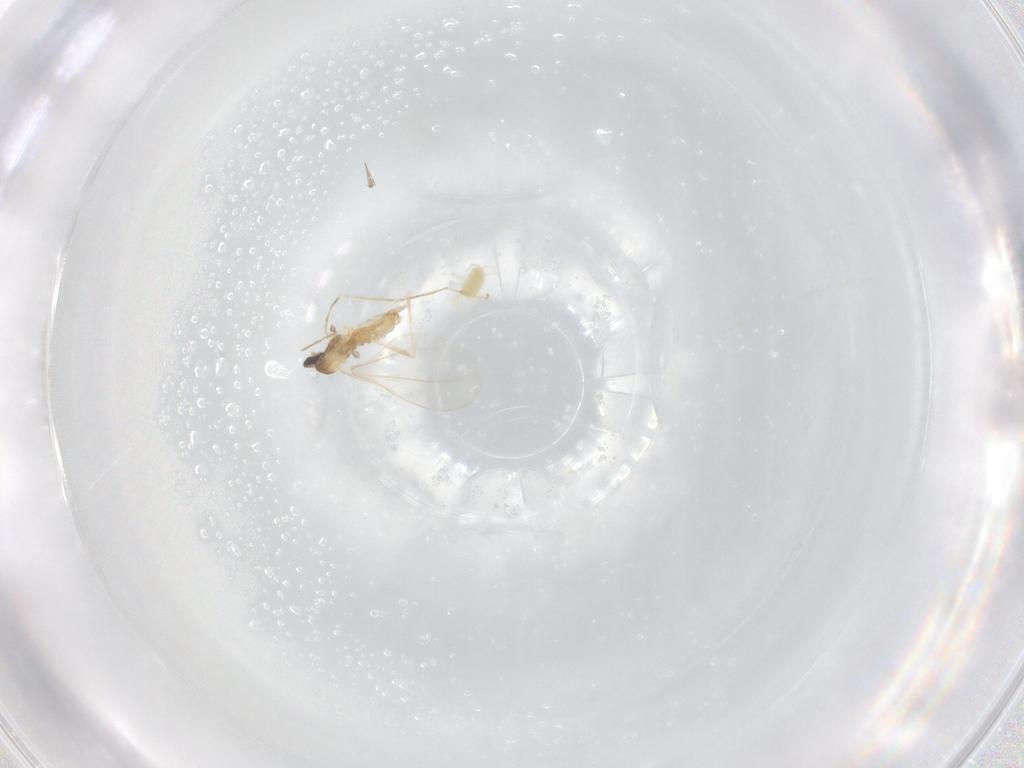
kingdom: Animalia
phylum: Arthropoda
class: Insecta
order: Diptera
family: Cecidomyiidae
